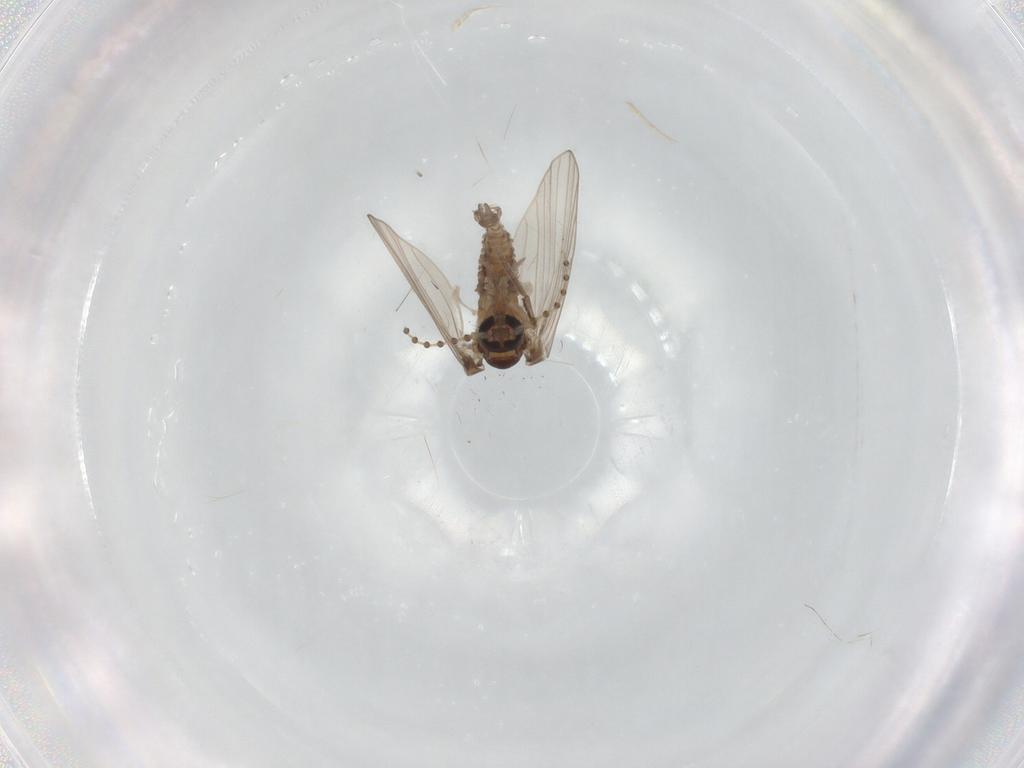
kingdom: Animalia
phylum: Arthropoda
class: Insecta
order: Diptera
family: Psychodidae
